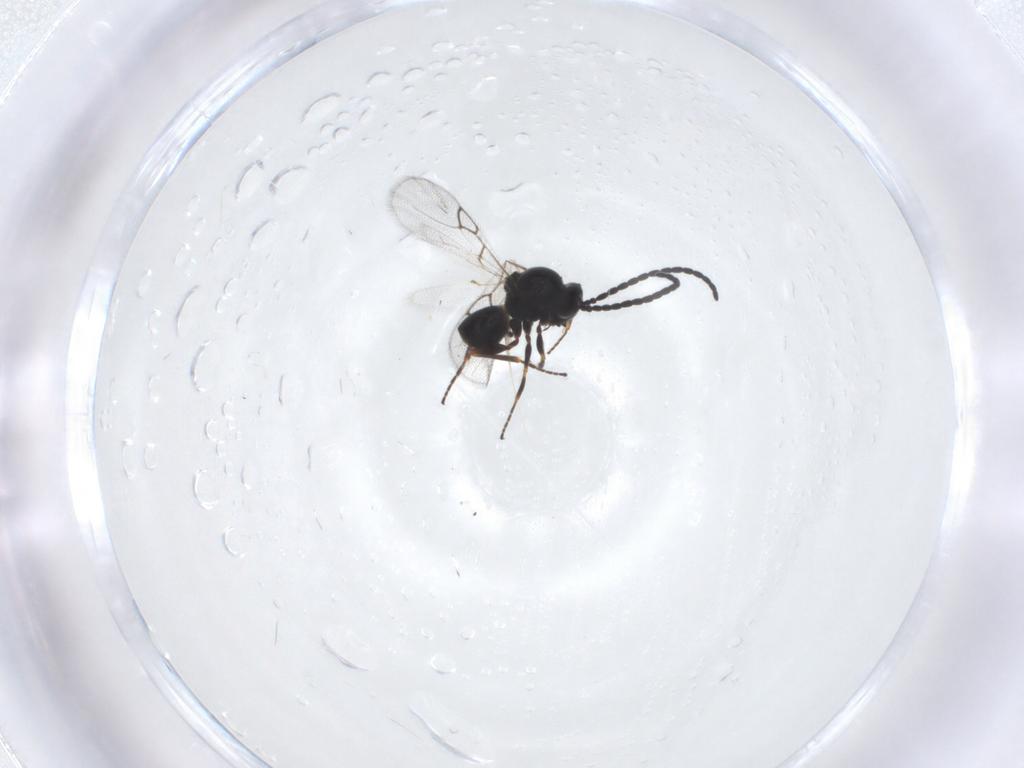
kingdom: Animalia
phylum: Arthropoda
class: Insecta
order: Hymenoptera
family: Figitidae
